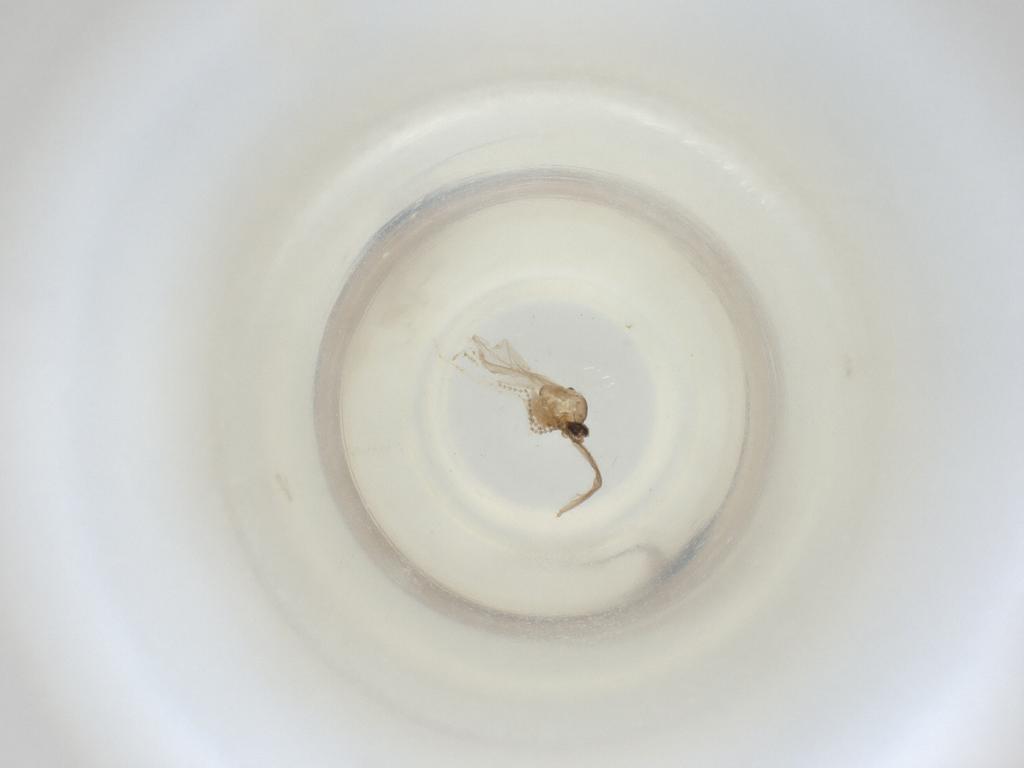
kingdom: Animalia
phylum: Arthropoda
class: Insecta
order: Diptera
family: Cecidomyiidae
